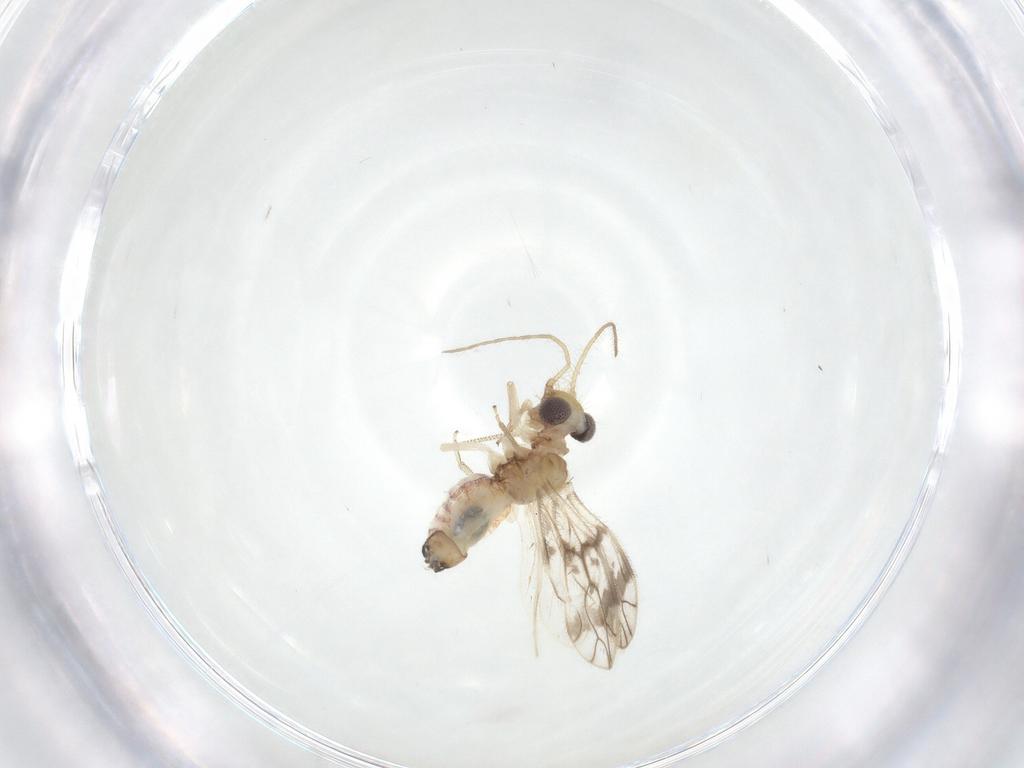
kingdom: Animalia
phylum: Arthropoda
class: Insecta
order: Psocodea
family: Pseudocaeciliidae
